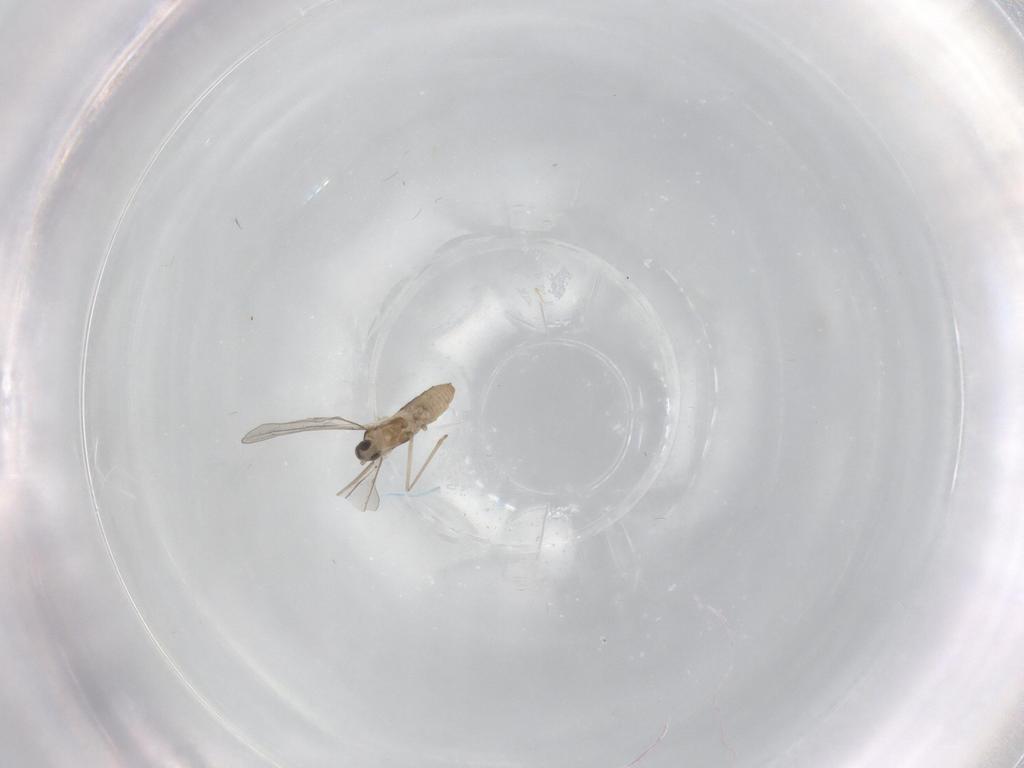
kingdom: Animalia
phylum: Arthropoda
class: Insecta
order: Diptera
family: Cecidomyiidae
